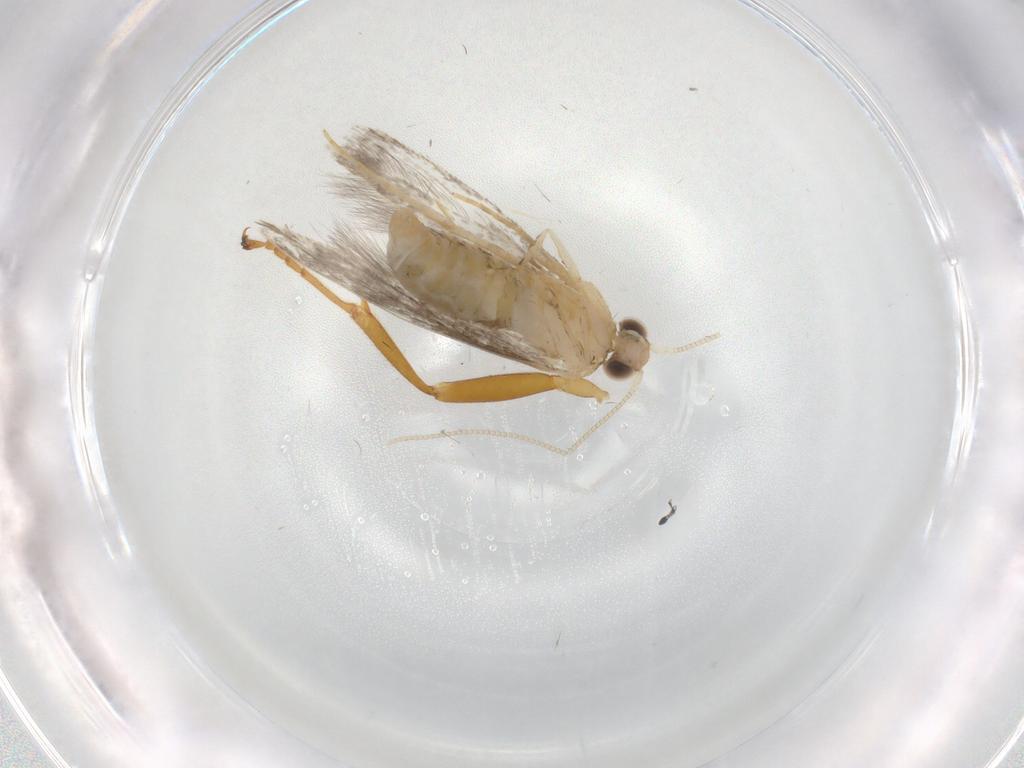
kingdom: Animalia
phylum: Arthropoda
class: Insecta
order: Lepidoptera
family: Tineidae
